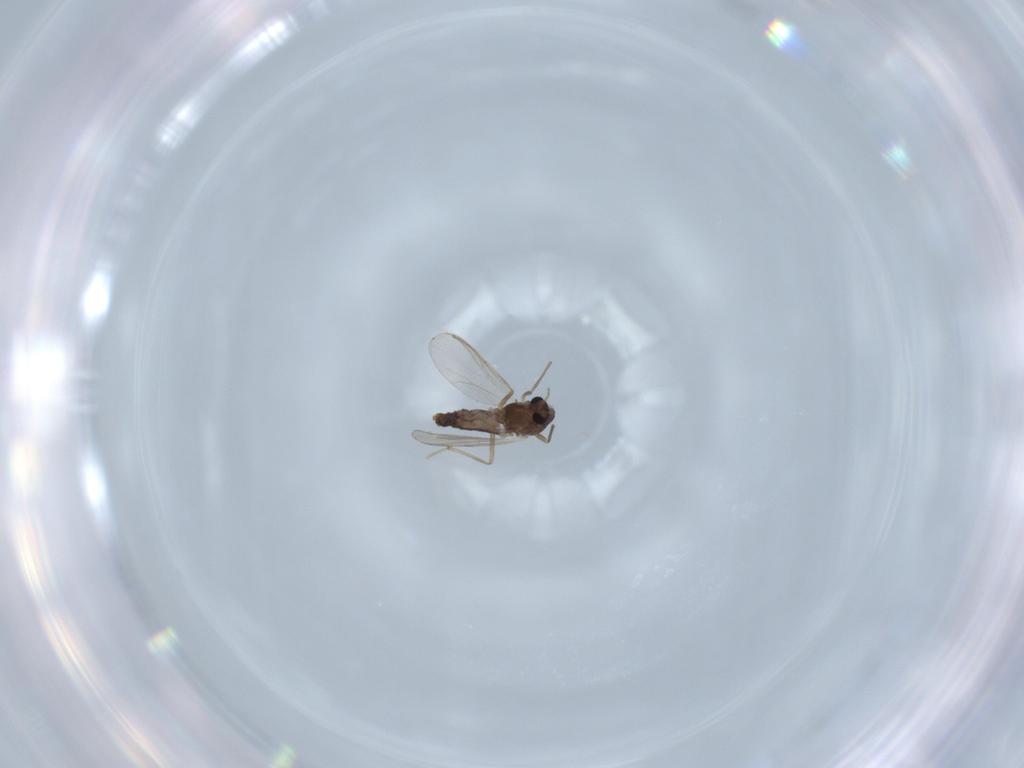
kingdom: Animalia
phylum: Arthropoda
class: Insecta
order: Diptera
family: Chironomidae
